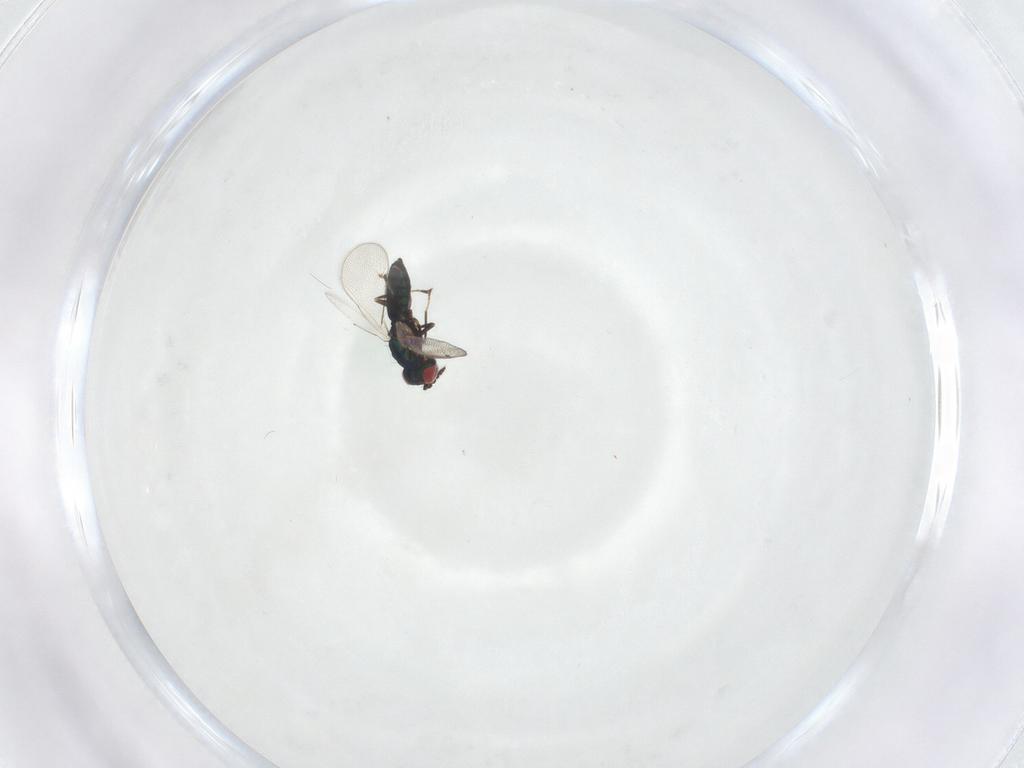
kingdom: Animalia
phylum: Arthropoda
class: Insecta
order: Hymenoptera
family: Eulophidae
